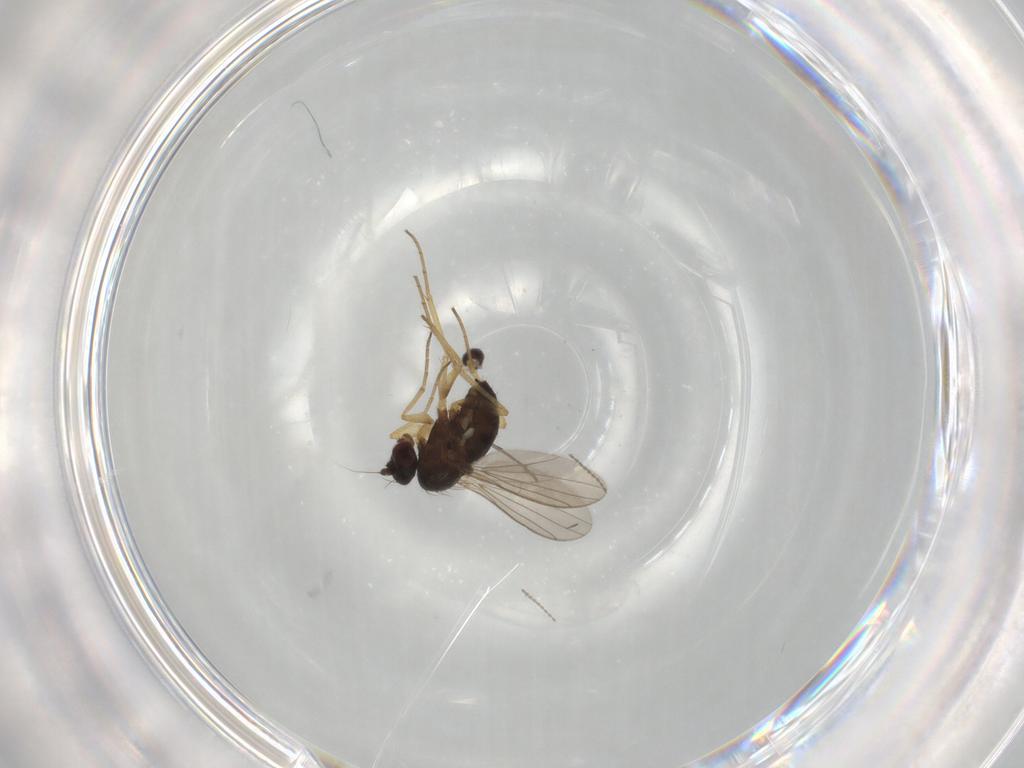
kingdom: Animalia
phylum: Arthropoda
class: Insecta
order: Diptera
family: Dolichopodidae
